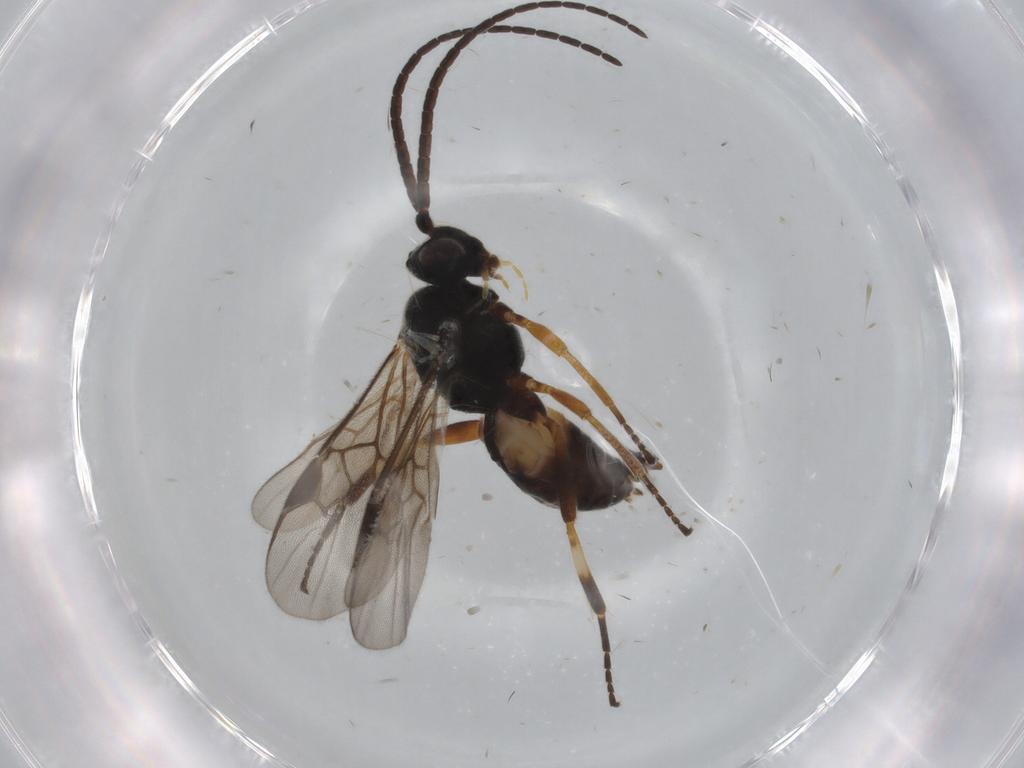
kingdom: Animalia
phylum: Arthropoda
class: Insecta
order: Hymenoptera
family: Braconidae
